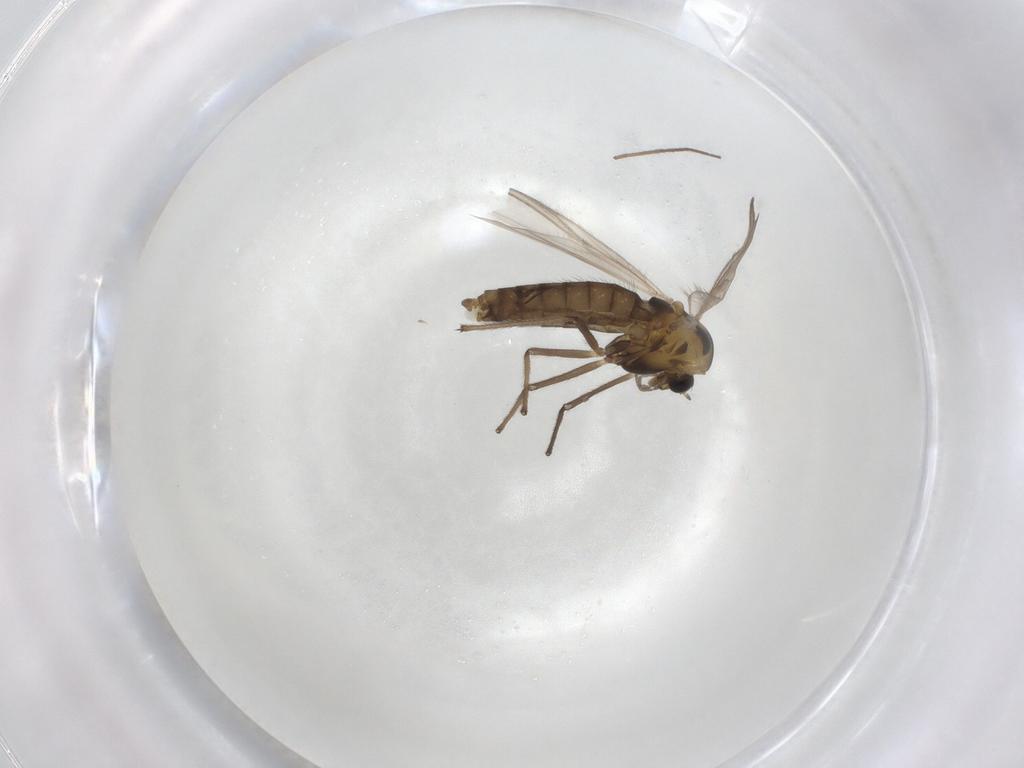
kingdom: Animalia
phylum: Arthropoda
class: Insecta
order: Diptera
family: Chironomidae
